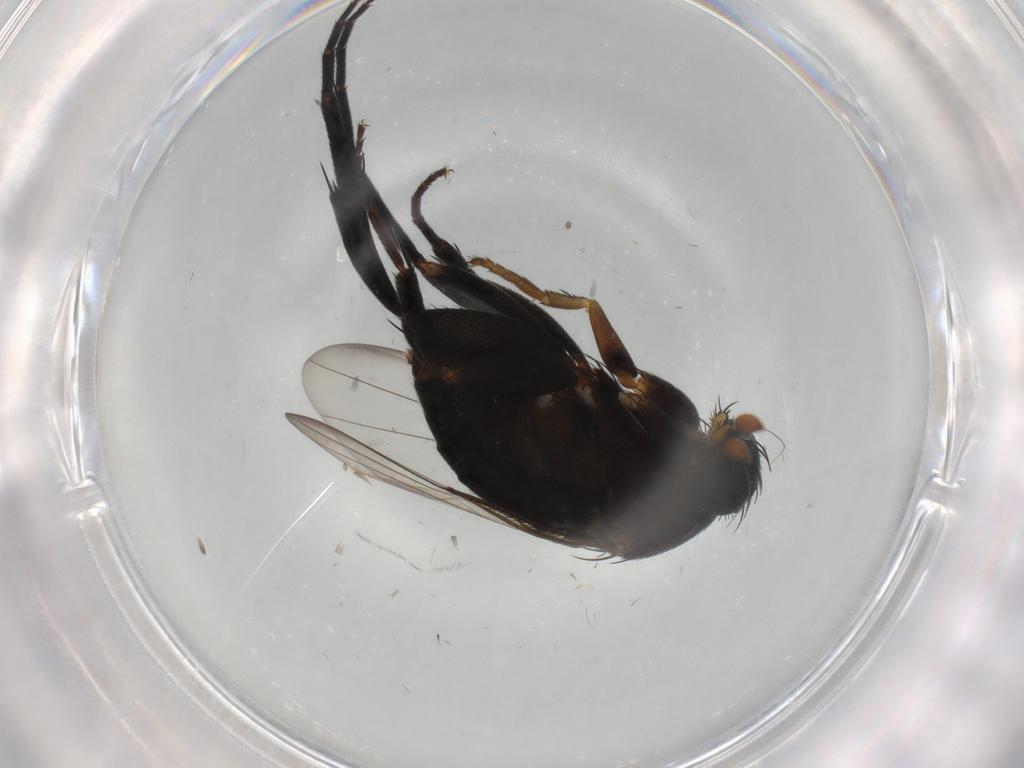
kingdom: Animalia
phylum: Arthropoda
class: Insecta
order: Diptera
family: Phoridae
